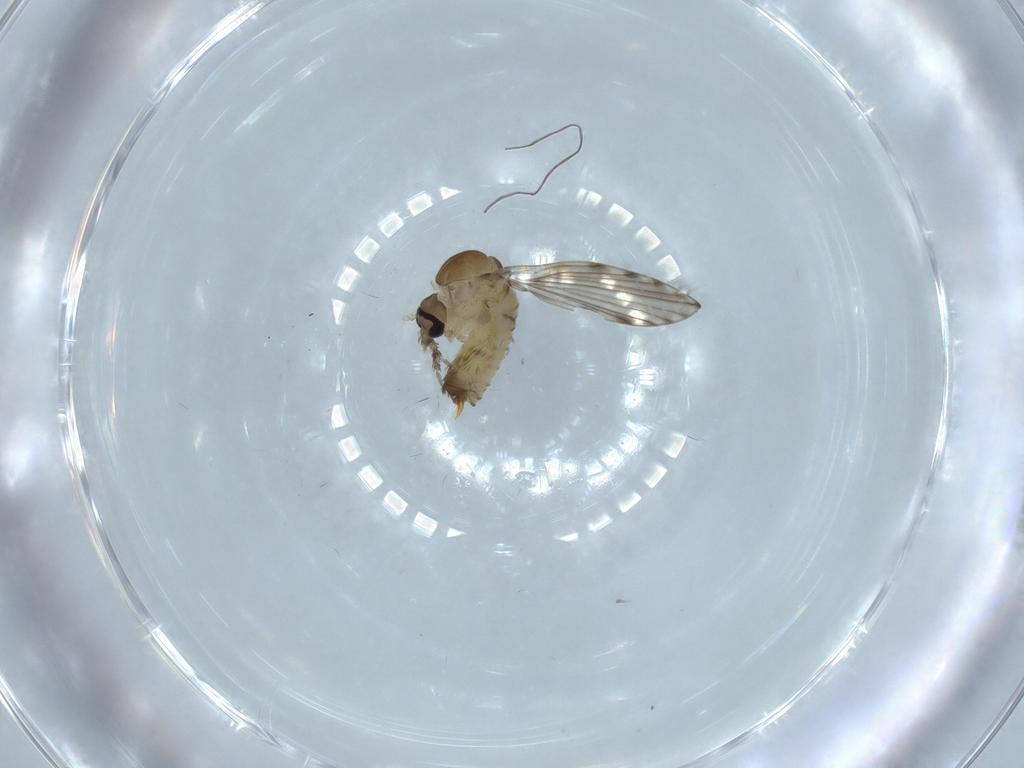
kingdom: Animalia
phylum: Arthropoda
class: Insecta
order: Diptera
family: Psychodidae
